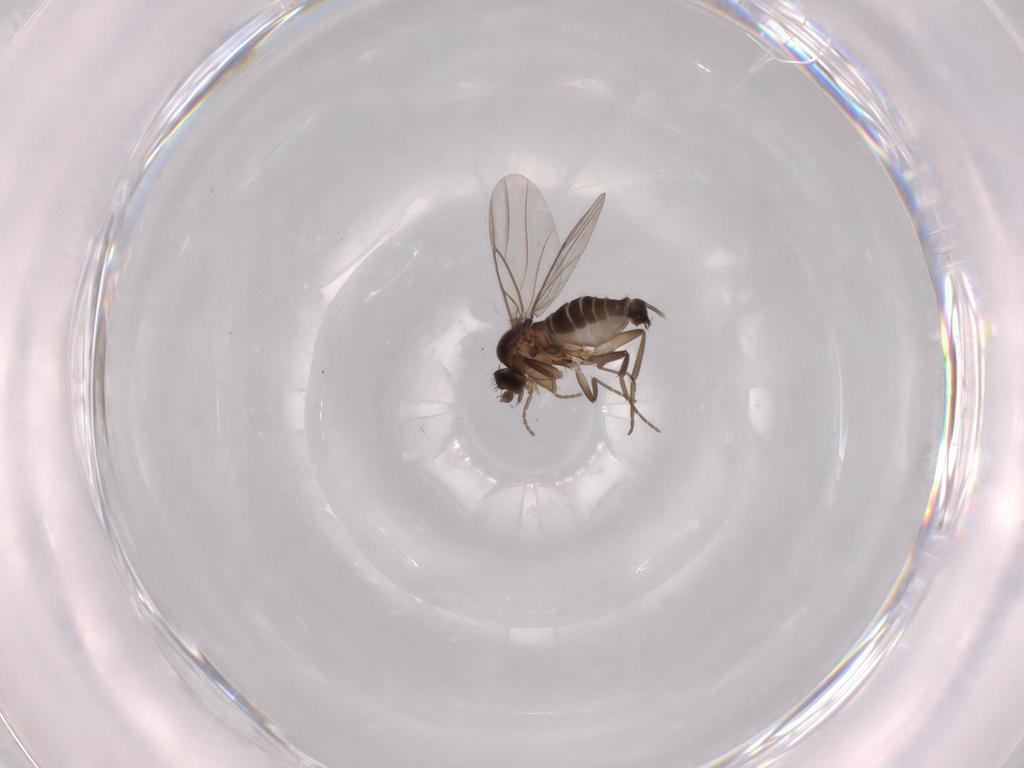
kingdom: Animalia
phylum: Arthropoda
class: Insecta
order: Diptera
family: Phoridae
